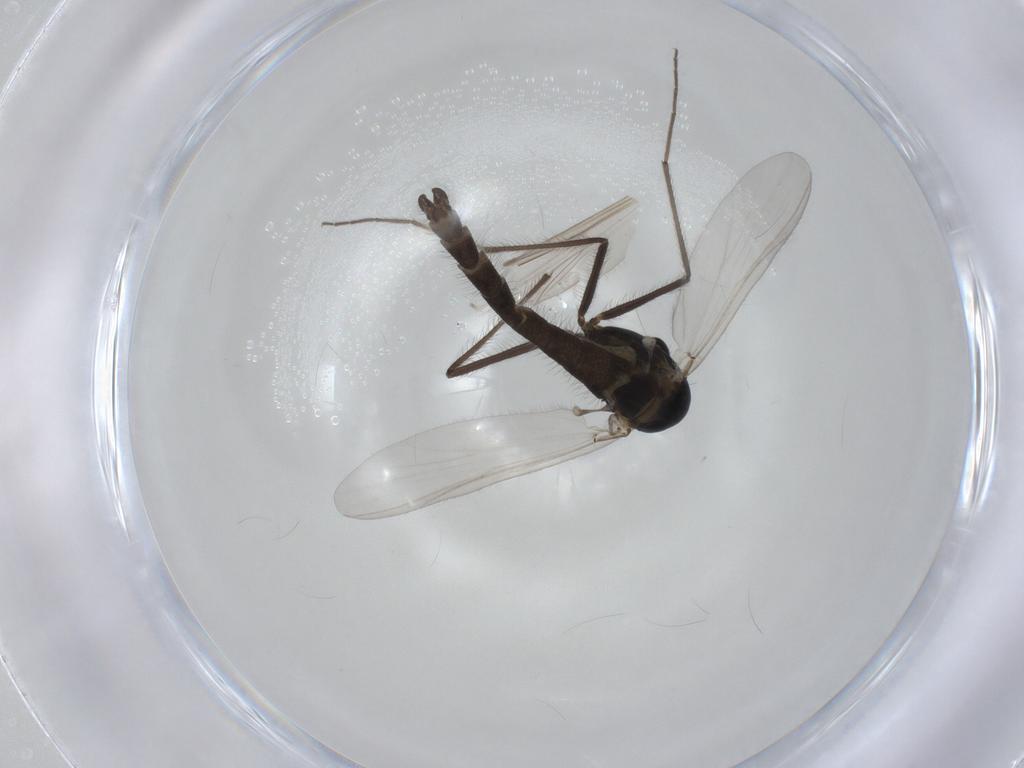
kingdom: Animalia
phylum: Arthropoda
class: Insecta
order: Diptera
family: Chironomidae
